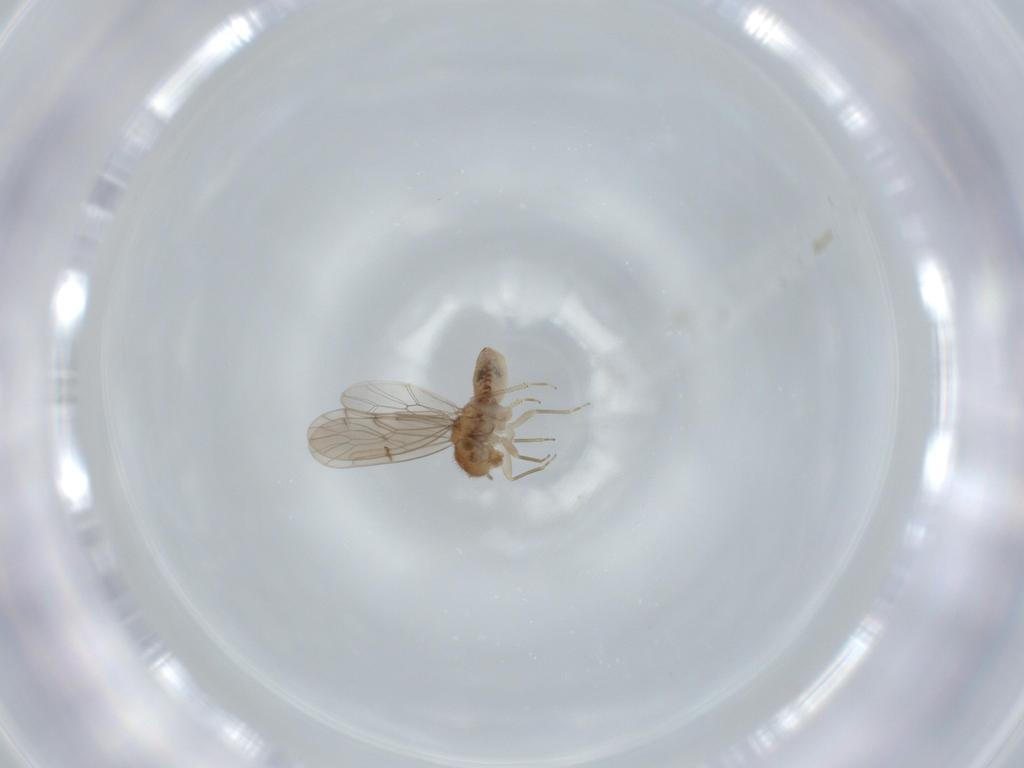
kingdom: Animalia
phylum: Arthropoda
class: Insecta
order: Psocodea
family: Ectopsocidae
